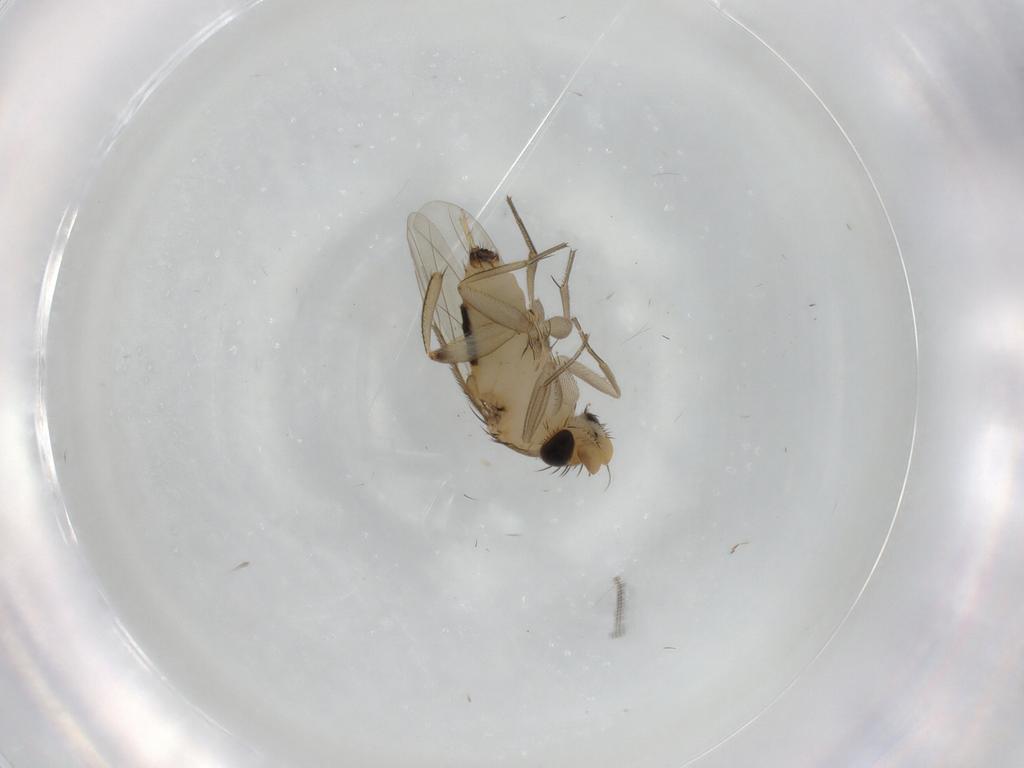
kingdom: Animalia
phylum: Arthropoda
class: Insecta
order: Diptera
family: Phoridae
